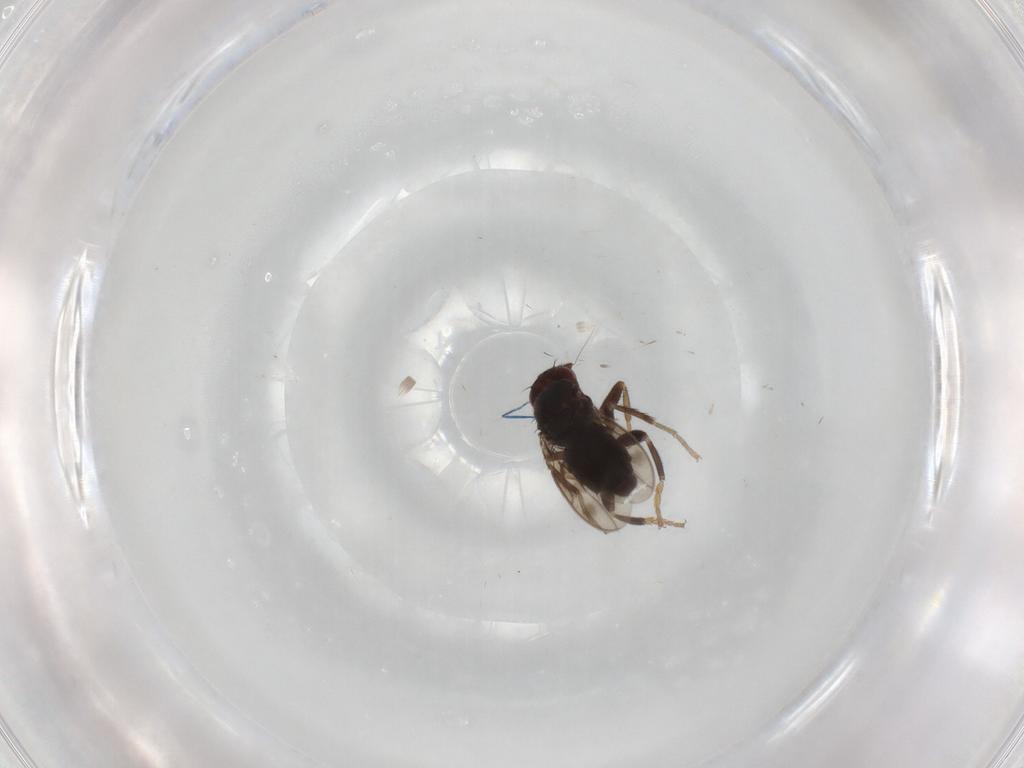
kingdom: Animalia
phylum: Arthropoda
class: Insecta
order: Diptera
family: Sphaeroceridae
